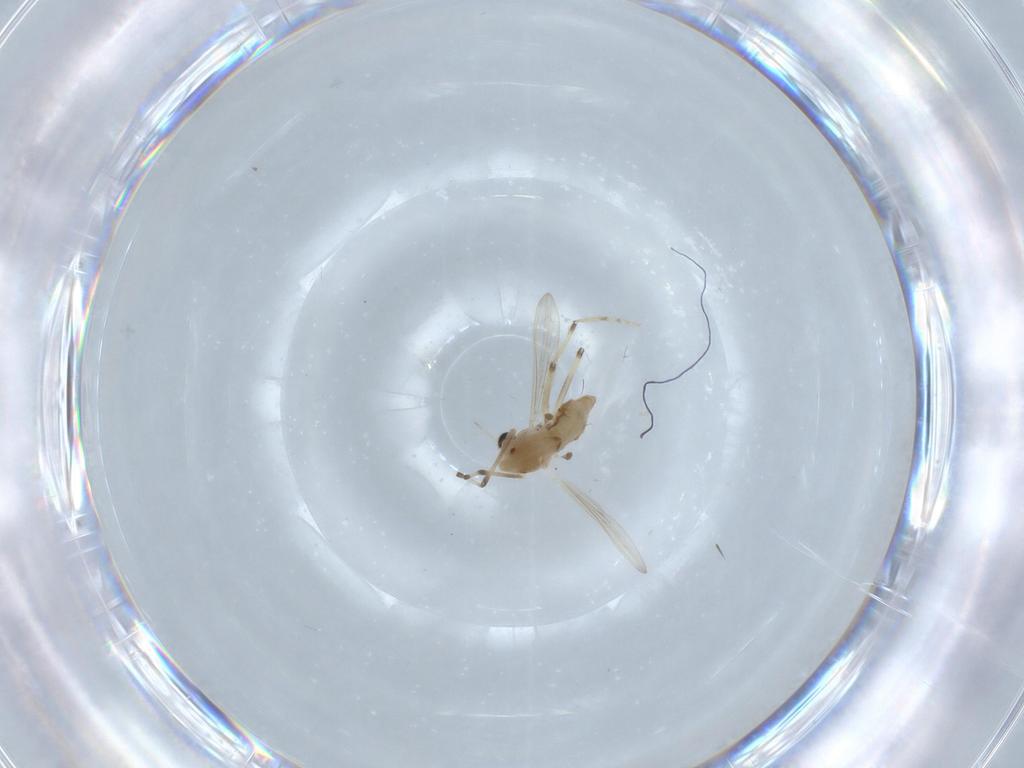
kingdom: Animalia
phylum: Arthropoda
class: Insecta
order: Diptera
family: Chironomidae
